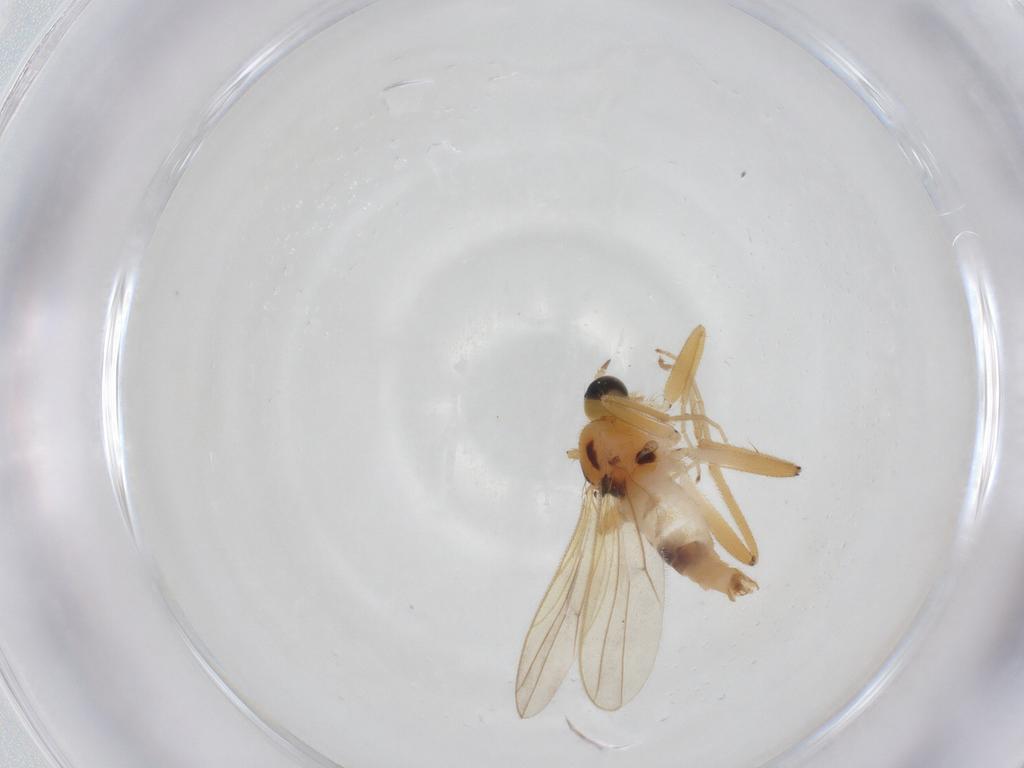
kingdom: Animalia
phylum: Arthropoda
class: Insecta
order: Diptera
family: Hybotidae
